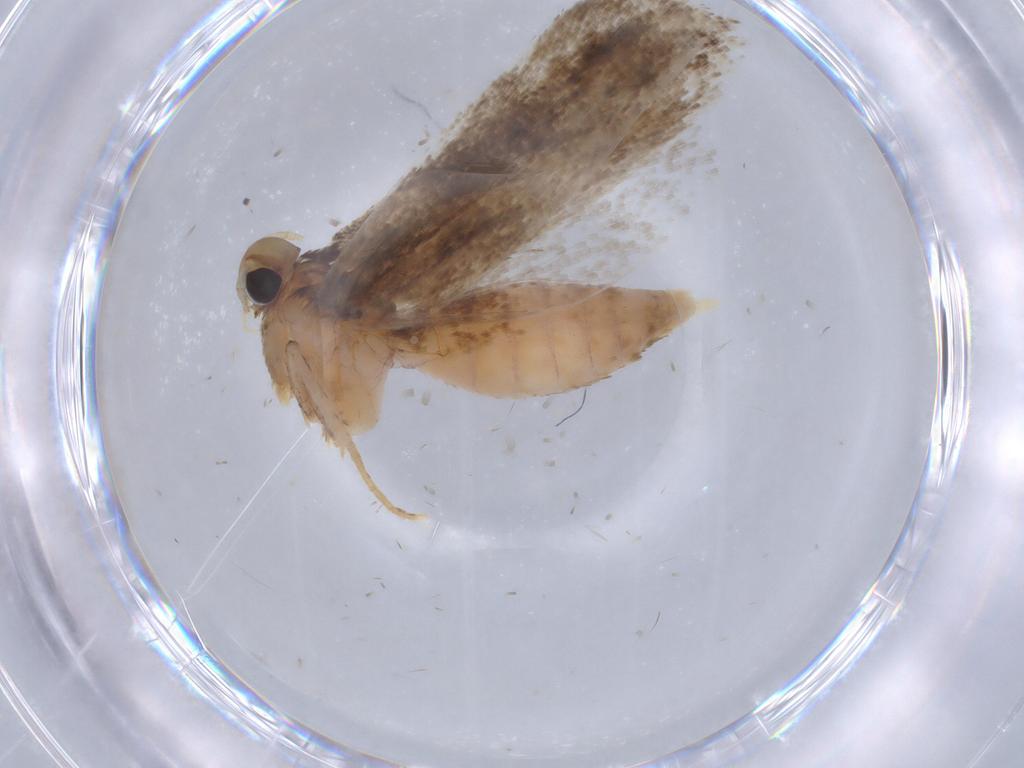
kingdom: Animalia
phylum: Arthropoda
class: Insecta
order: Lepidoptera
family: Gelechiidae
